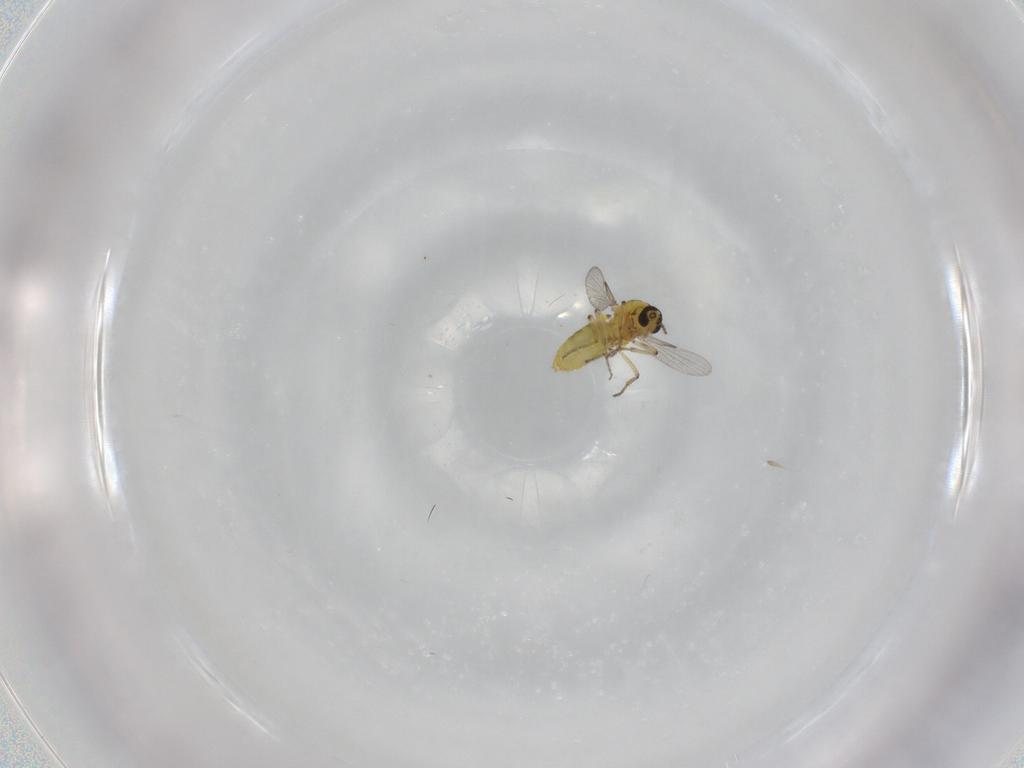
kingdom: Animalia
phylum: Arthropoda
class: Insecta
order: Diptera
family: Ceratopogonidae
